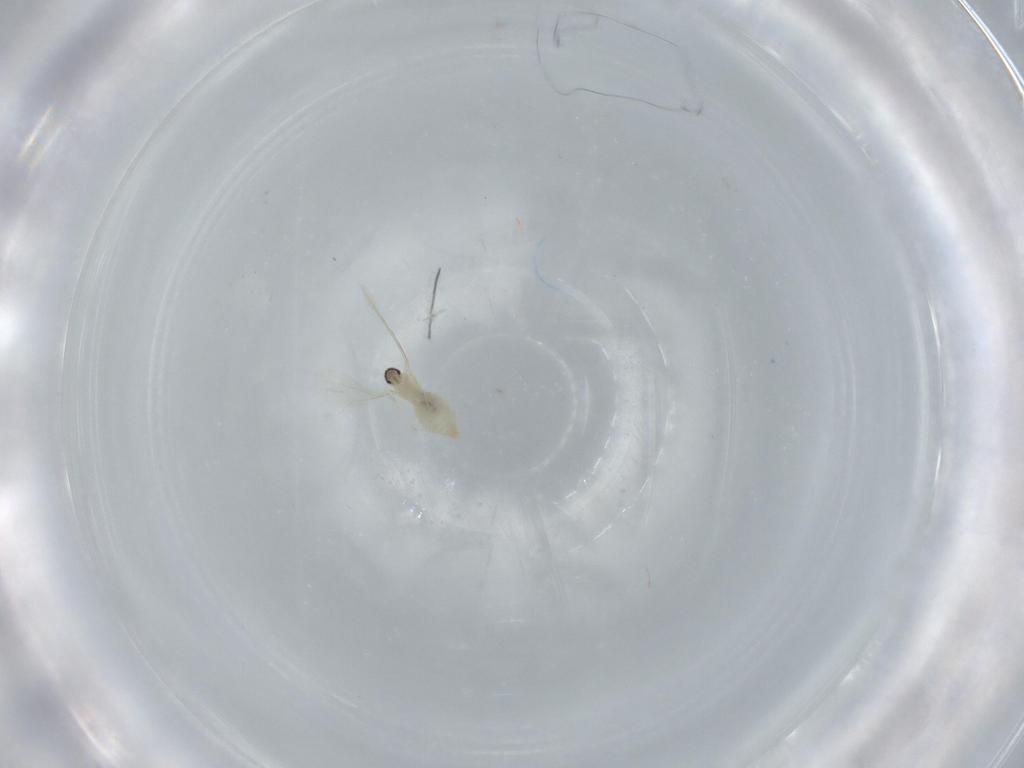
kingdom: Animalia
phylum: Arthropoda
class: Insecta
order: Diptera
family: Cecidomyiidae
